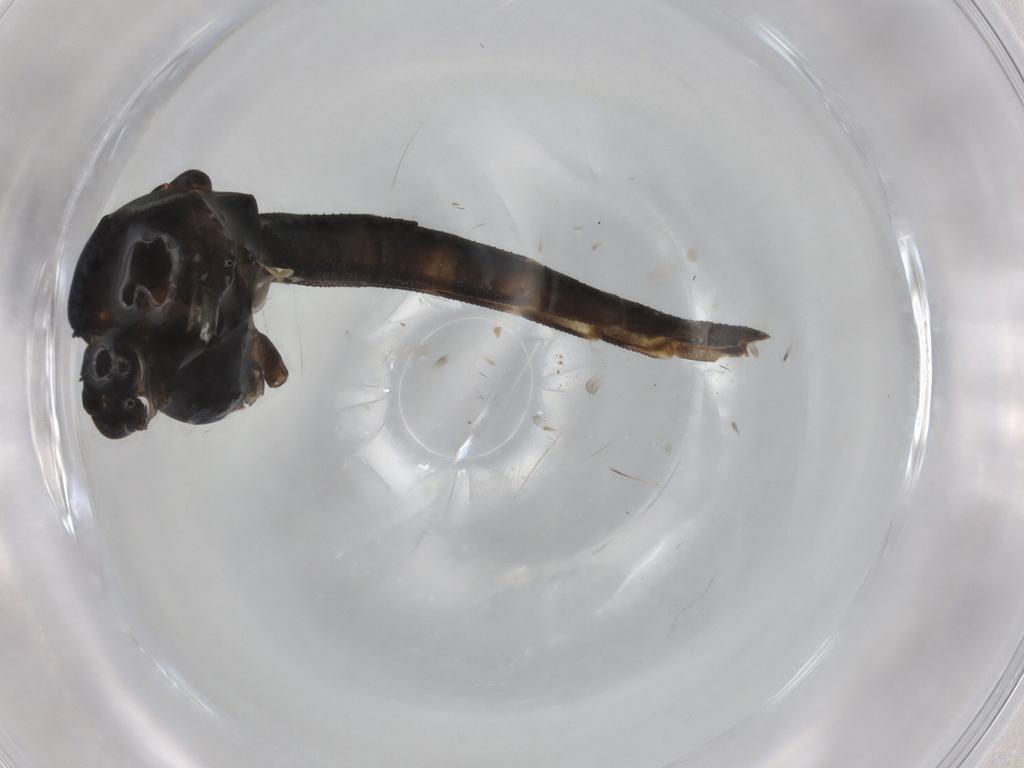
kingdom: Animalia
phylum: Arthropoda
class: Insecta
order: Diptera
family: Chironomidae
